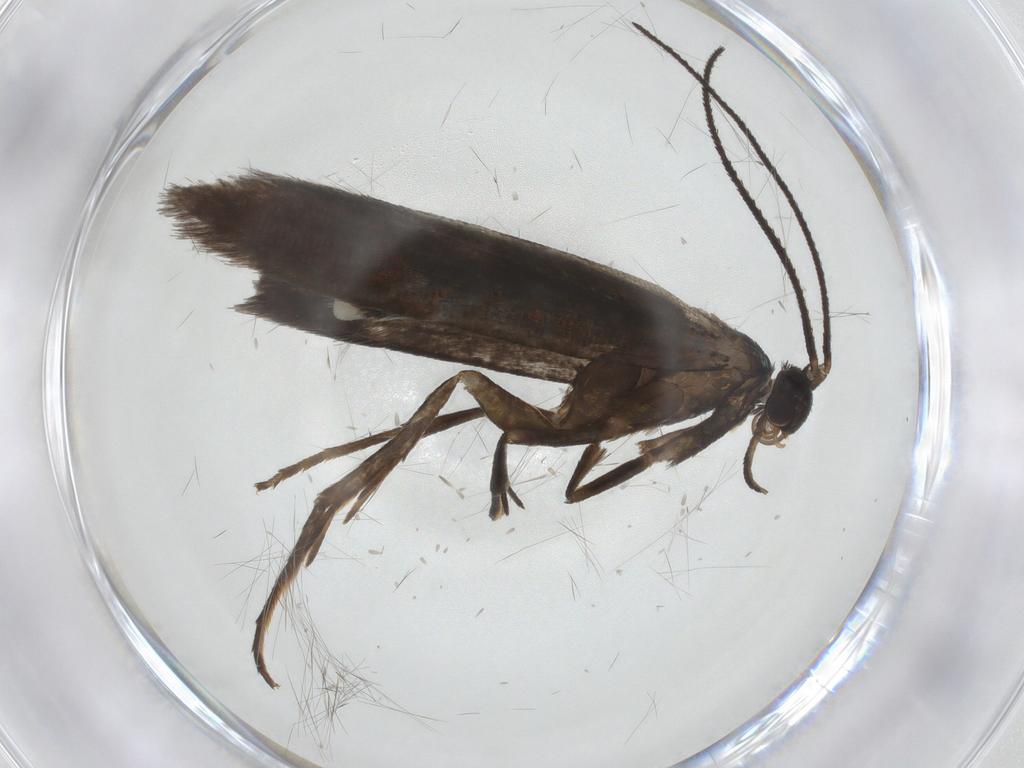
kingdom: Animalia
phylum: Arthropoda
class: Insecta
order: Lepidoptera
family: Argyresthiidae
